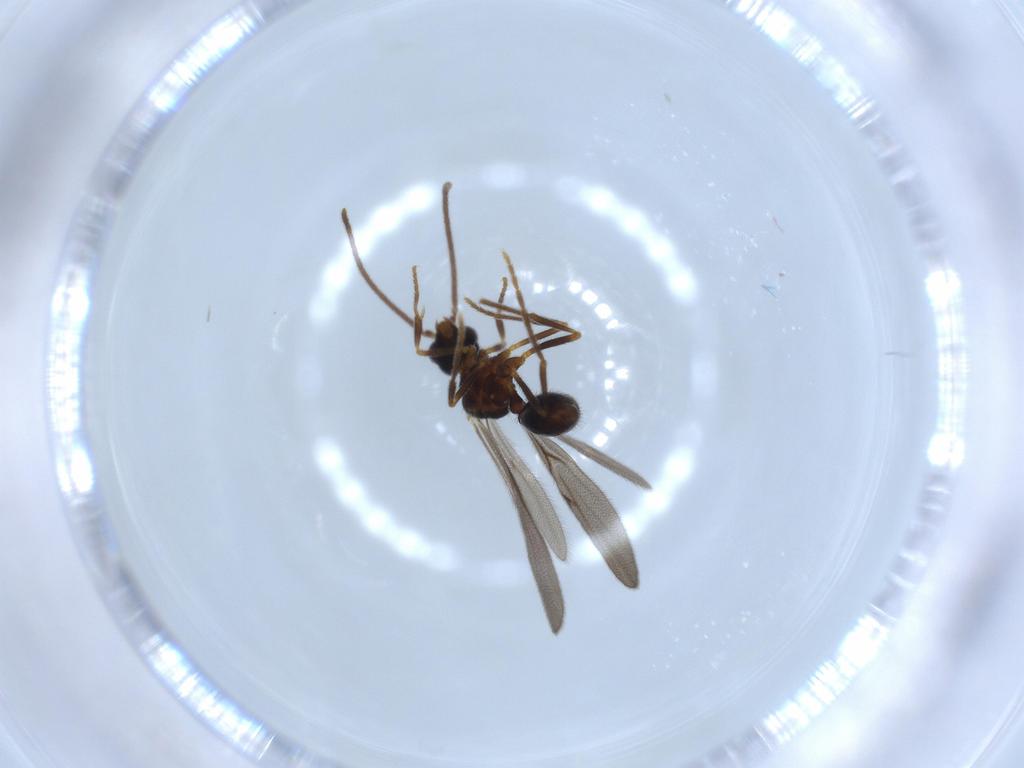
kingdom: Animalia
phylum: Arthropoda
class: Insecta
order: Hymenoptera
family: Formicidae
